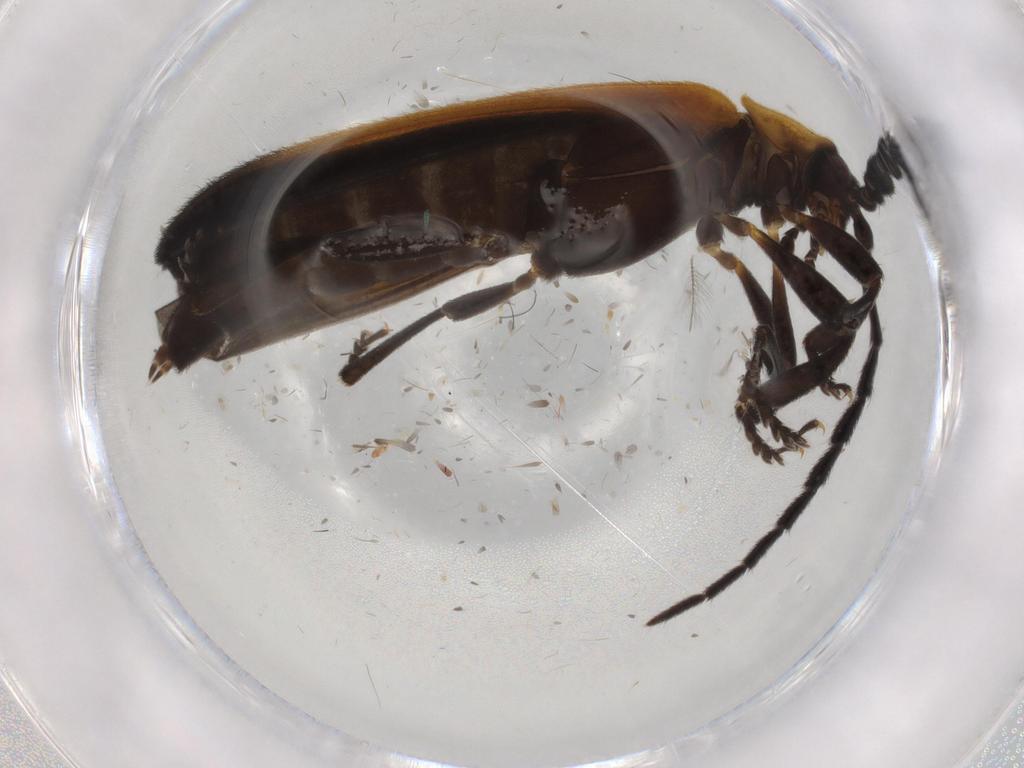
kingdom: Animalia
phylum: Arthropoda
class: Insecta
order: Coleoptera
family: Lycidae
